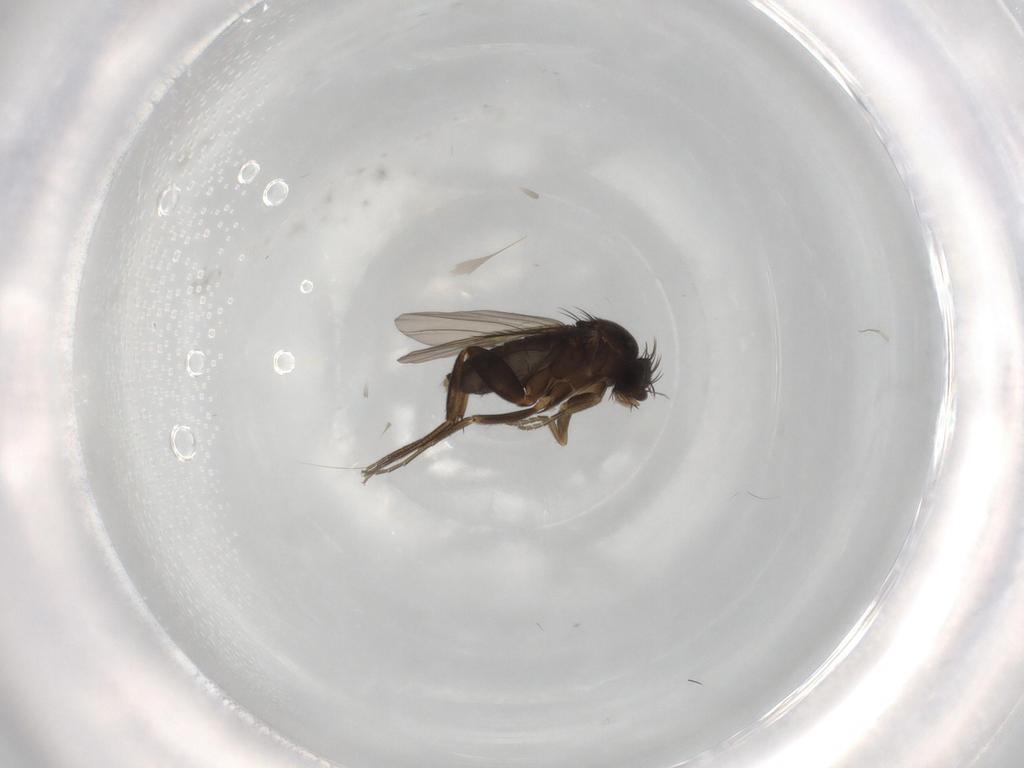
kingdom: Animalia
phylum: Arthropoda
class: Insecta
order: Diptera
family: Phoridae
